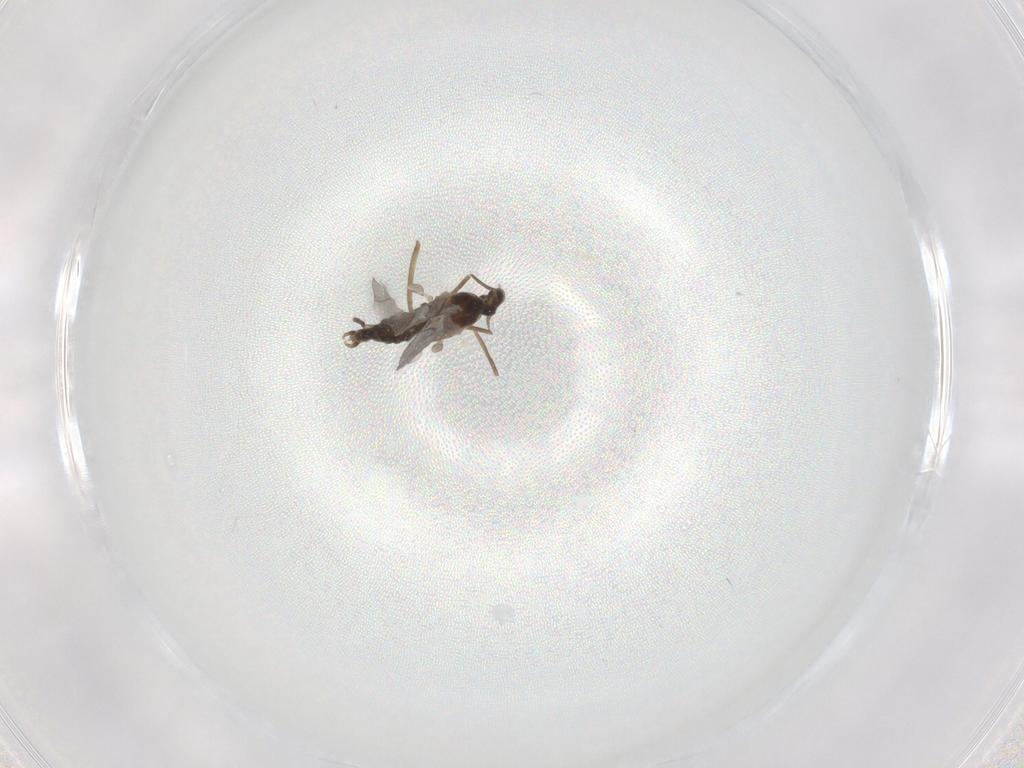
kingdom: Animalia
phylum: Arthropoda
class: Insecta
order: Diptera
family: Cecidomyiidae
